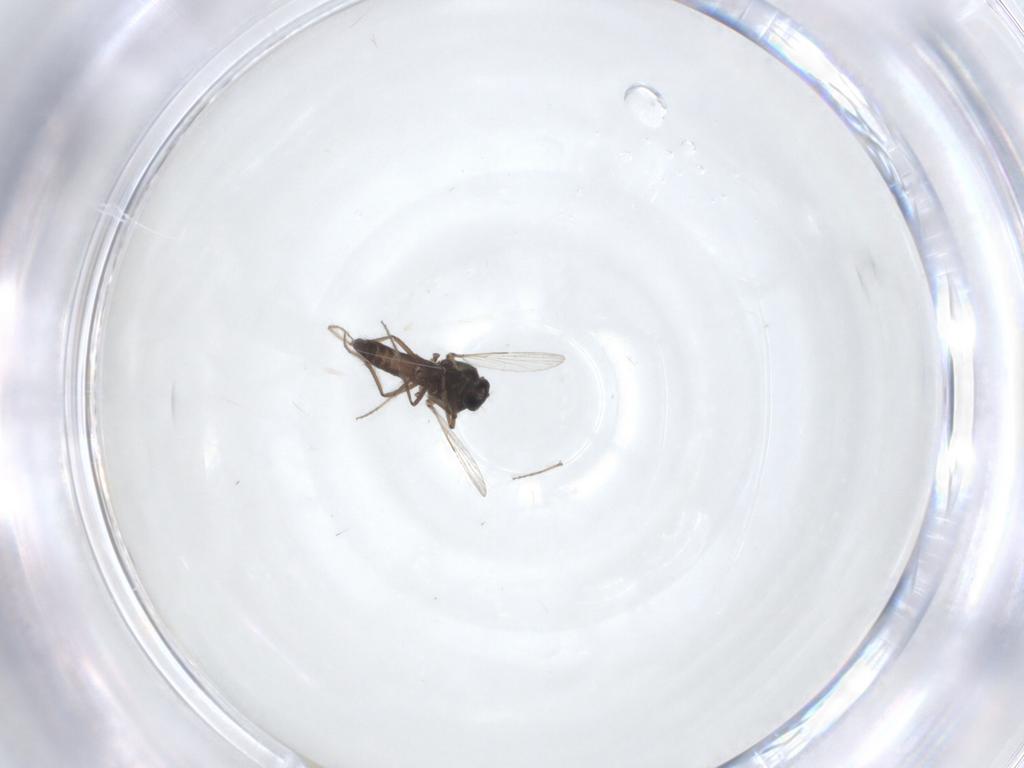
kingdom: Animalia
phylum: Arthropoda
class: Insecta
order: Diptera
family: Ceratopogonidae
